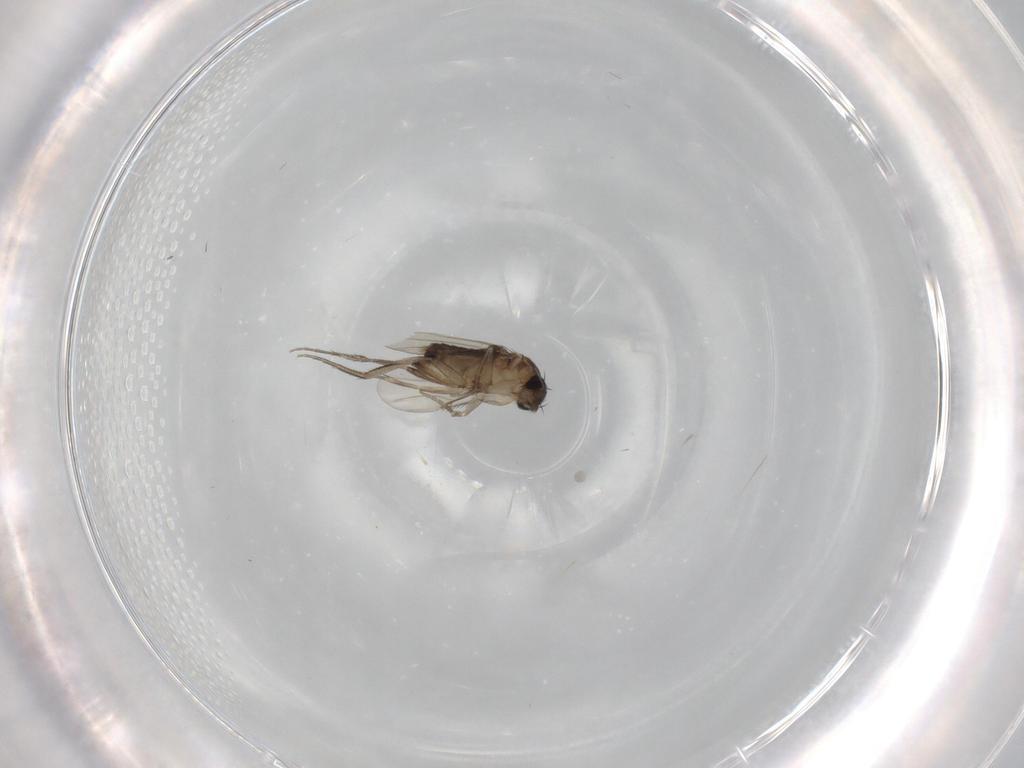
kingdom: Animalia
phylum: Arthropoda
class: Insecta
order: Diptera
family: Phoridae
